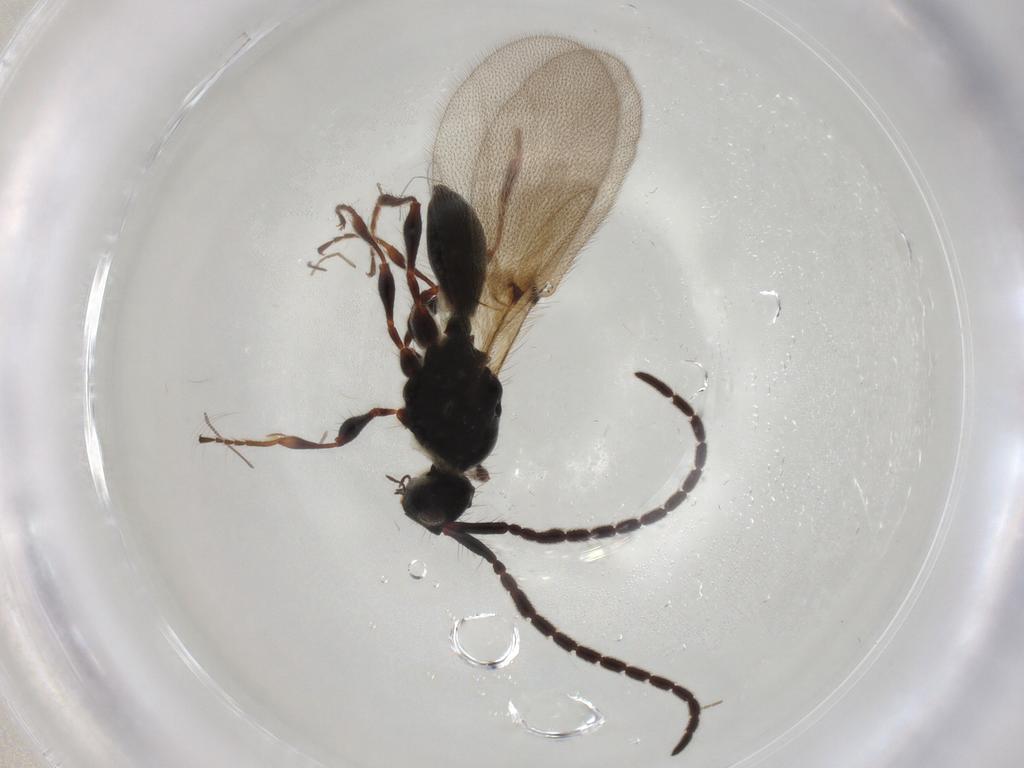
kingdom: Animalia
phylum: Arthropoda
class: Insecta
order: Hymenoptera
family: Diapriidae
